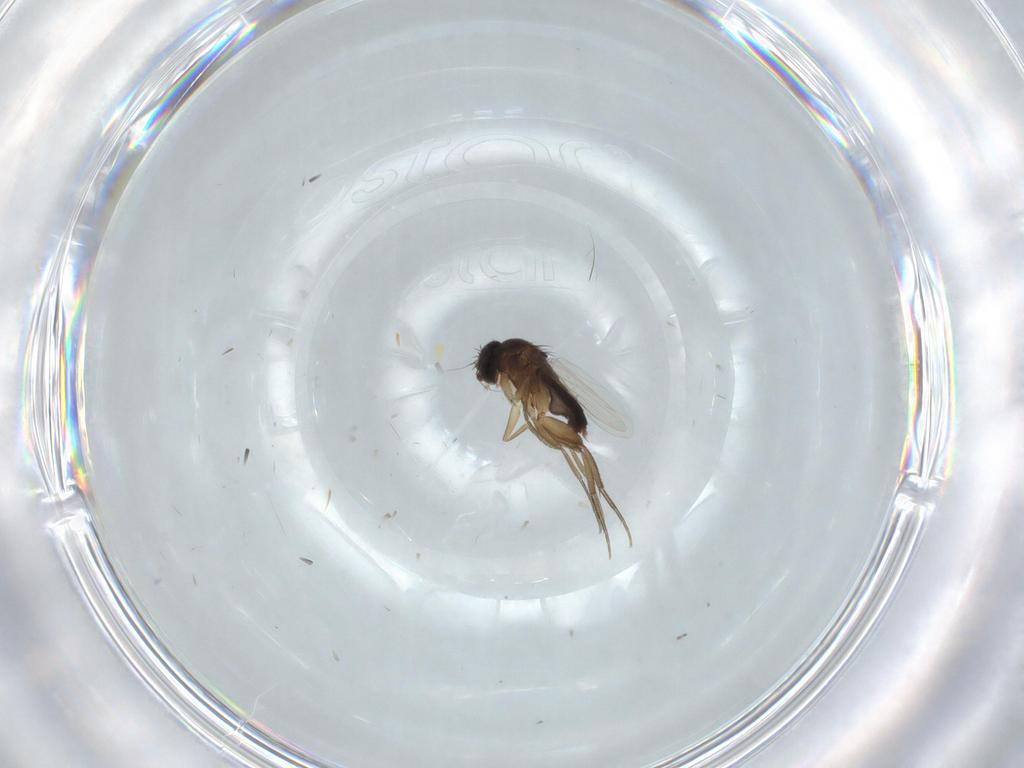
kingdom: Animalia
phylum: Arthropoda
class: Insecta
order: Diptera
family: Phoridae
